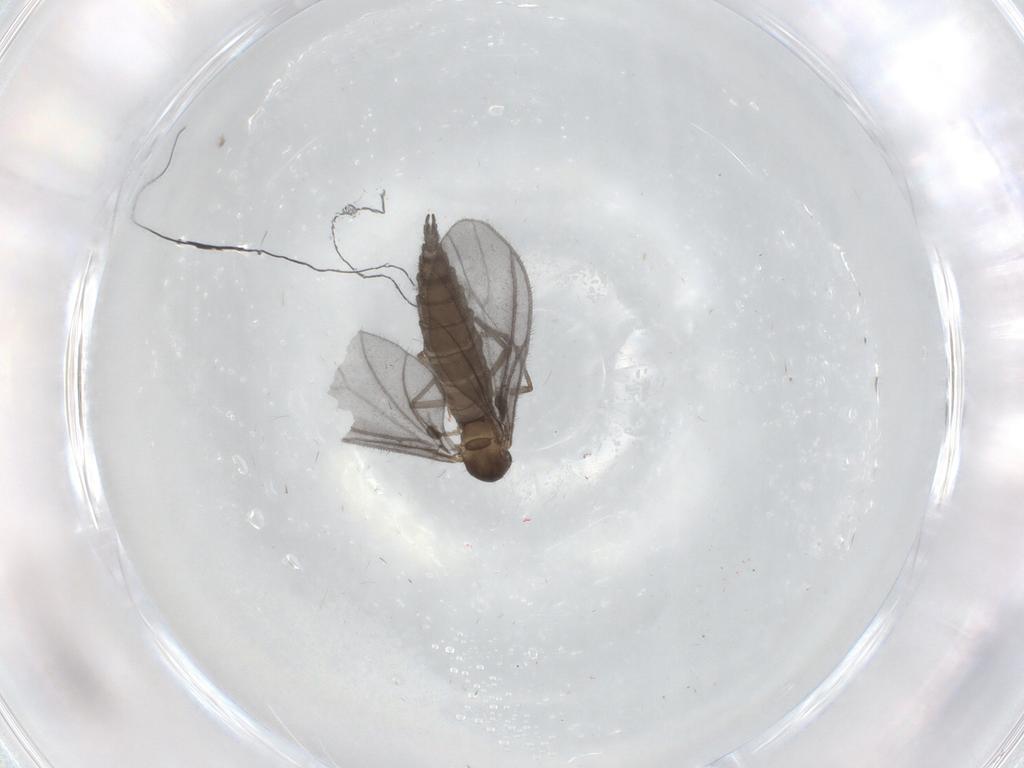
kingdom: Animalia
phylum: Arthropoda
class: Insecta
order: Diptera
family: Sciaridae
